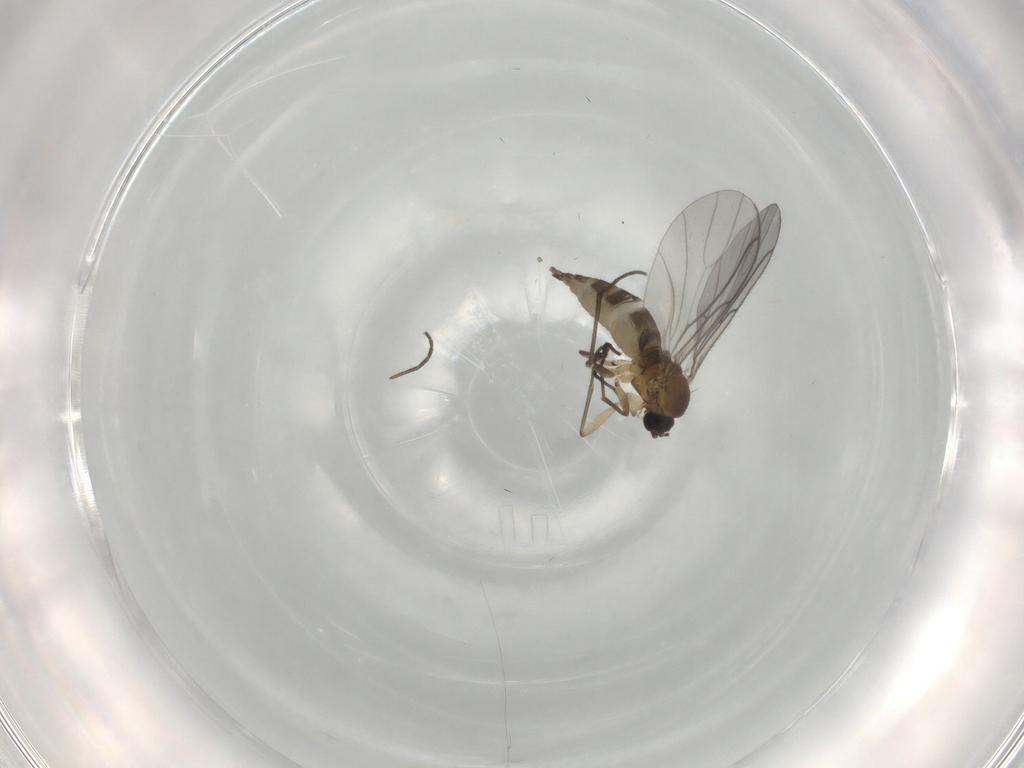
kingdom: Animalia
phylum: Arthropoda
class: Insecta
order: Diptera
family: Sciaridae
